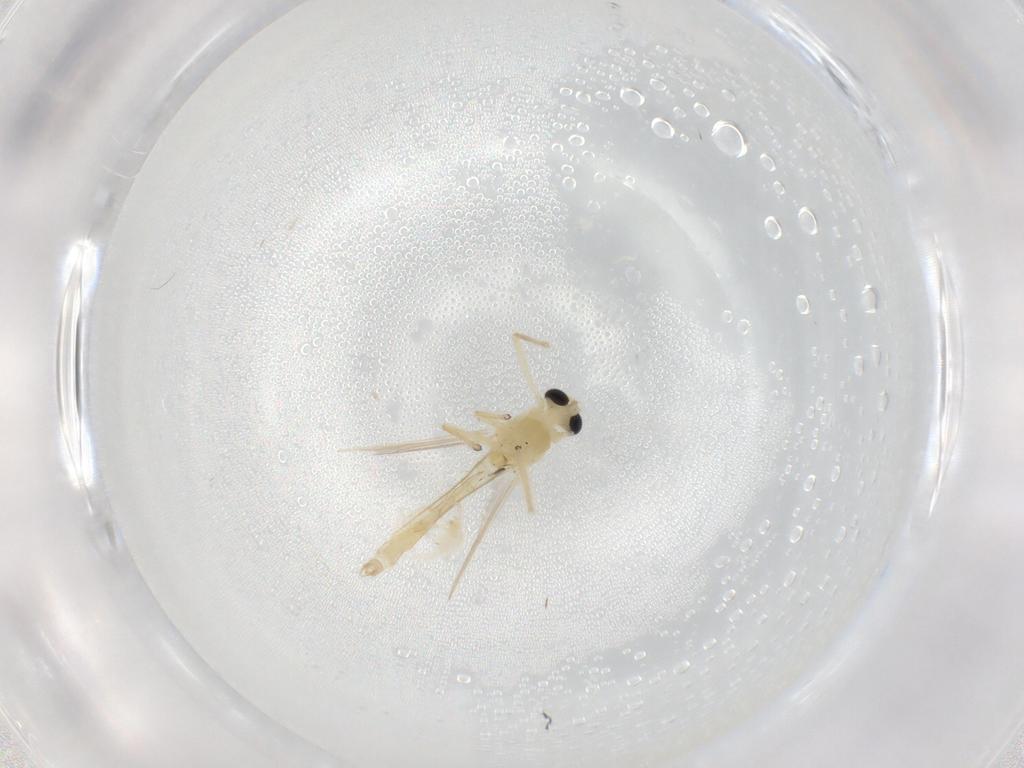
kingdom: Animalia
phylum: Arthropoda
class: Insecta
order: Diptera
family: Chironomidae
